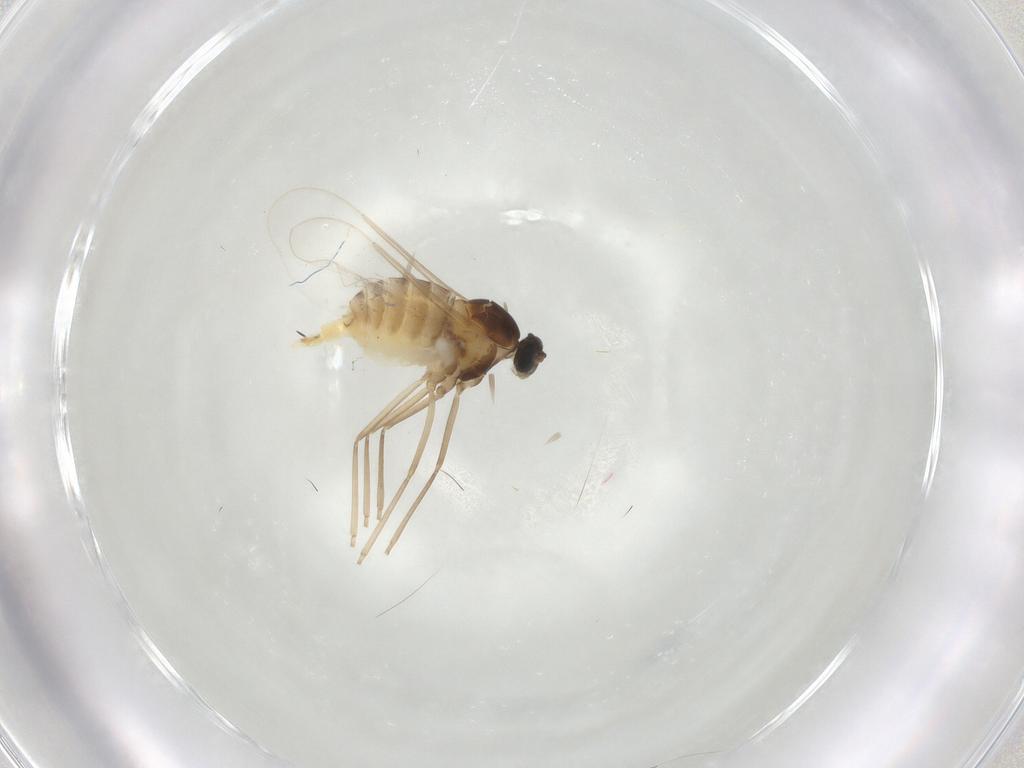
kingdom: Animalia
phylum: Arthropoda
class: Insecta
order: Diptera
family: Cecidomyiidae
